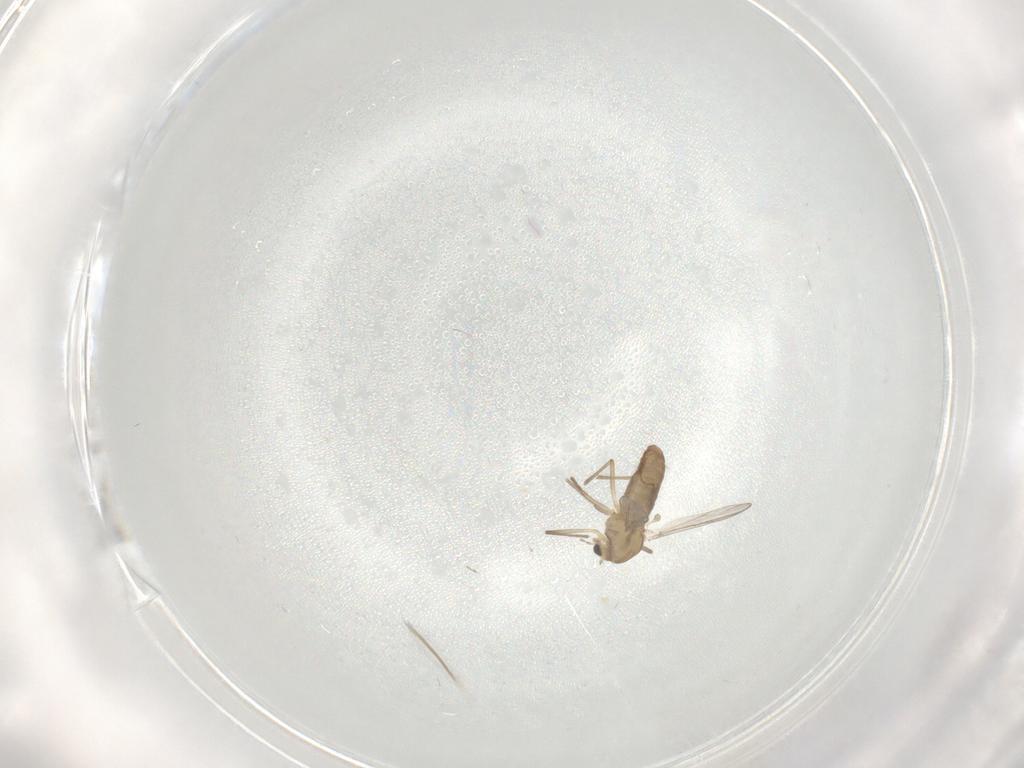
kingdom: Animalia
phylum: Arthropoda
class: Insecta
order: Diptera
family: Chironomidae
